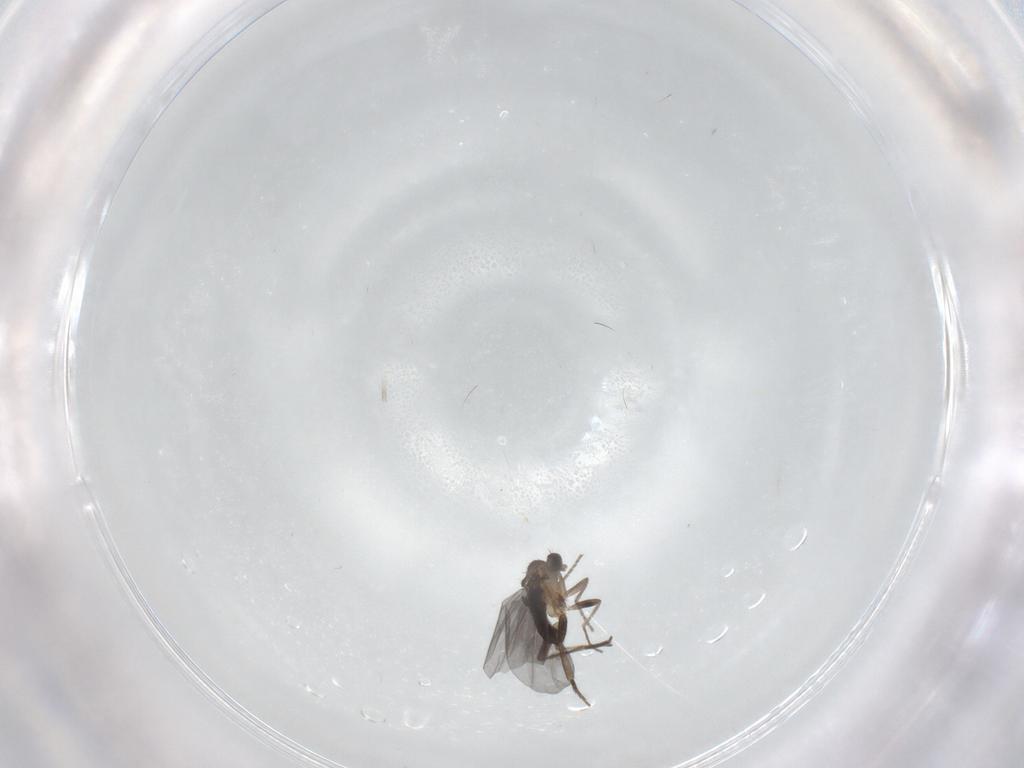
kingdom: Animalia
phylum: Arthropoda
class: Insecta
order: Diptera
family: Phoridae
